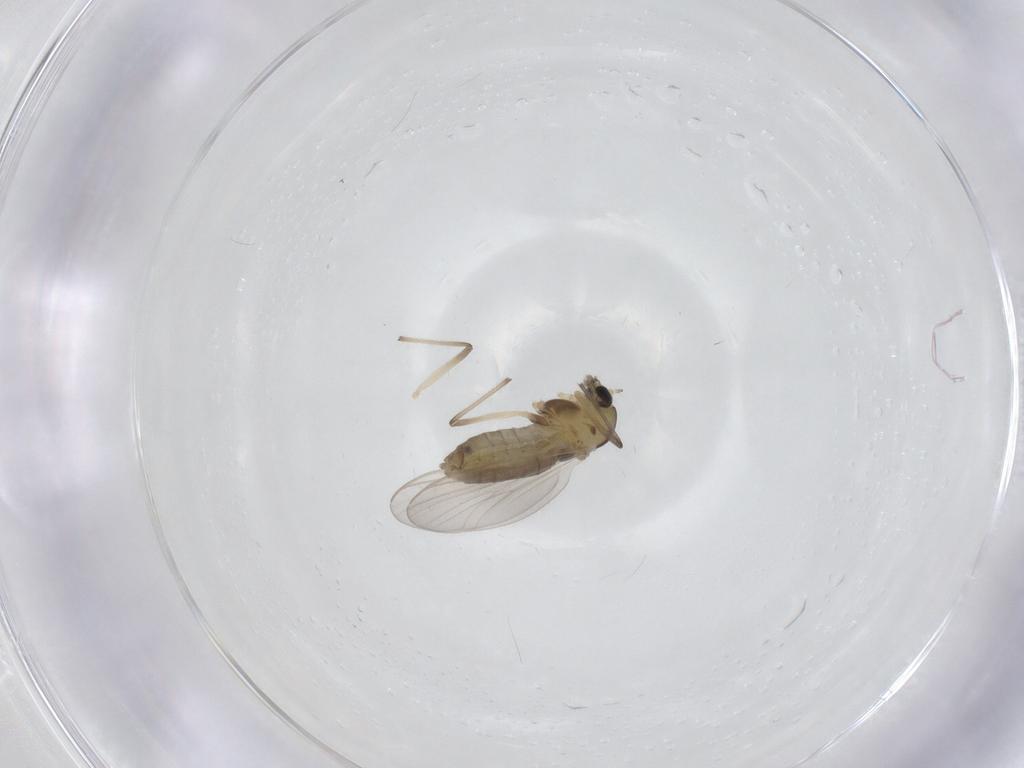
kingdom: Animalia
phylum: Arthropoda
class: Insecta
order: Diptera
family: Chironomidae
